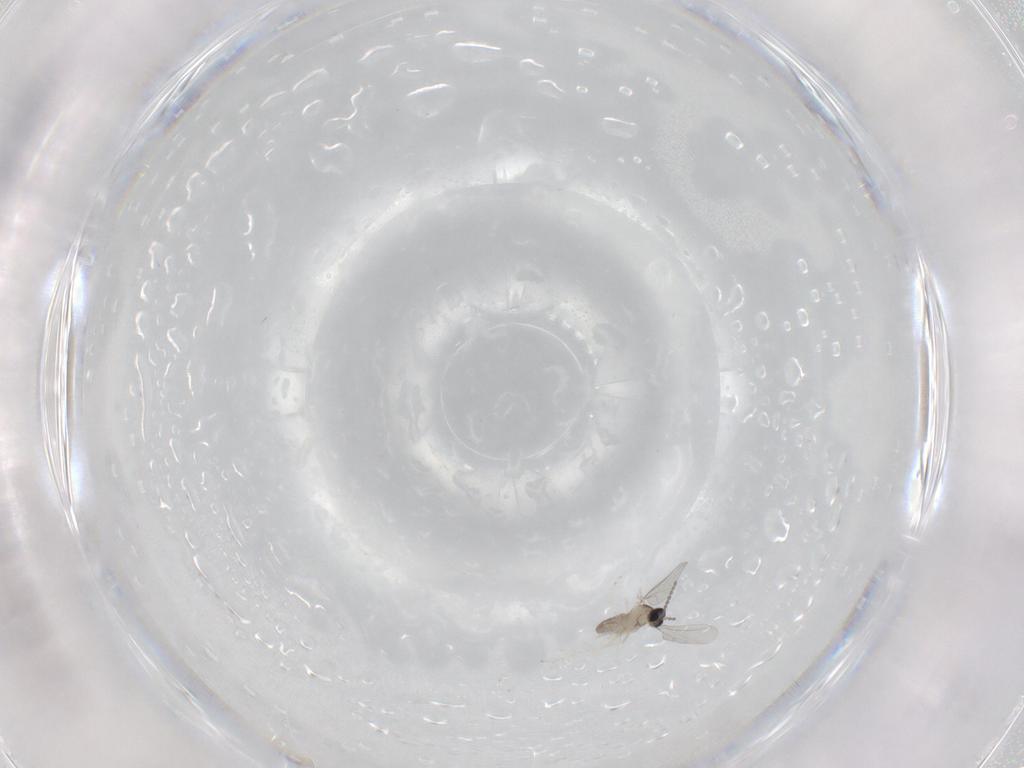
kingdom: Animalia
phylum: Arthropoda
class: Insecta
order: Diptera
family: Cecidomyiidae
